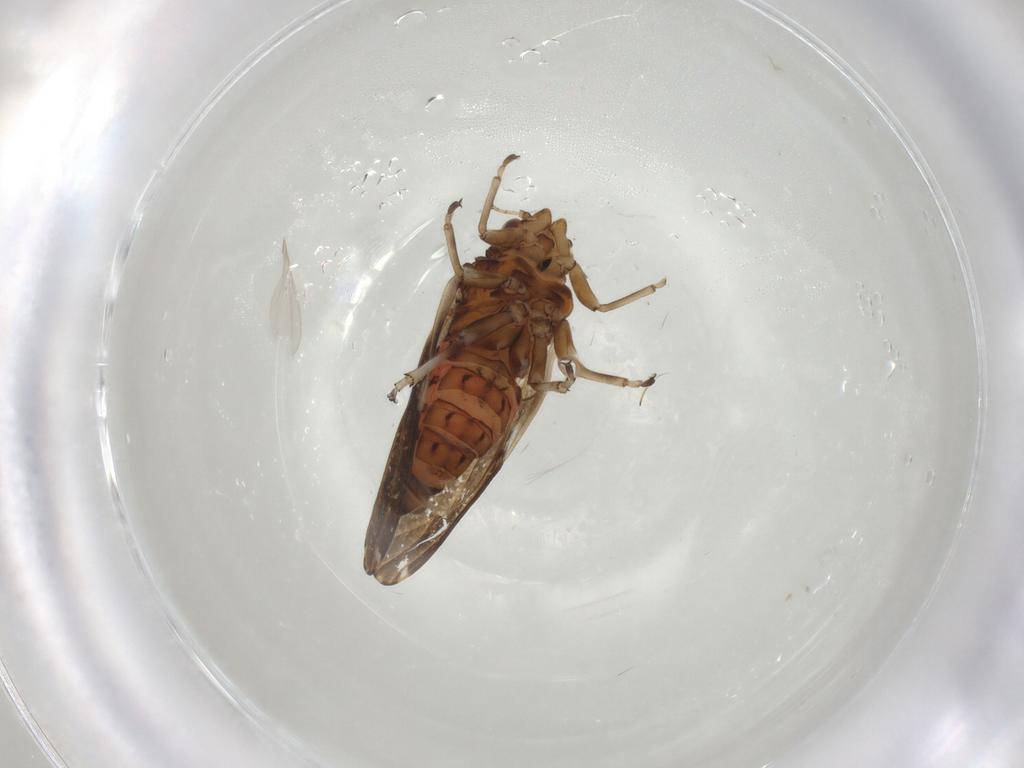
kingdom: Animalia
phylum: Arthropoda
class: Insecta
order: Hemiptera
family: Psylloidea_incertae_sedis
